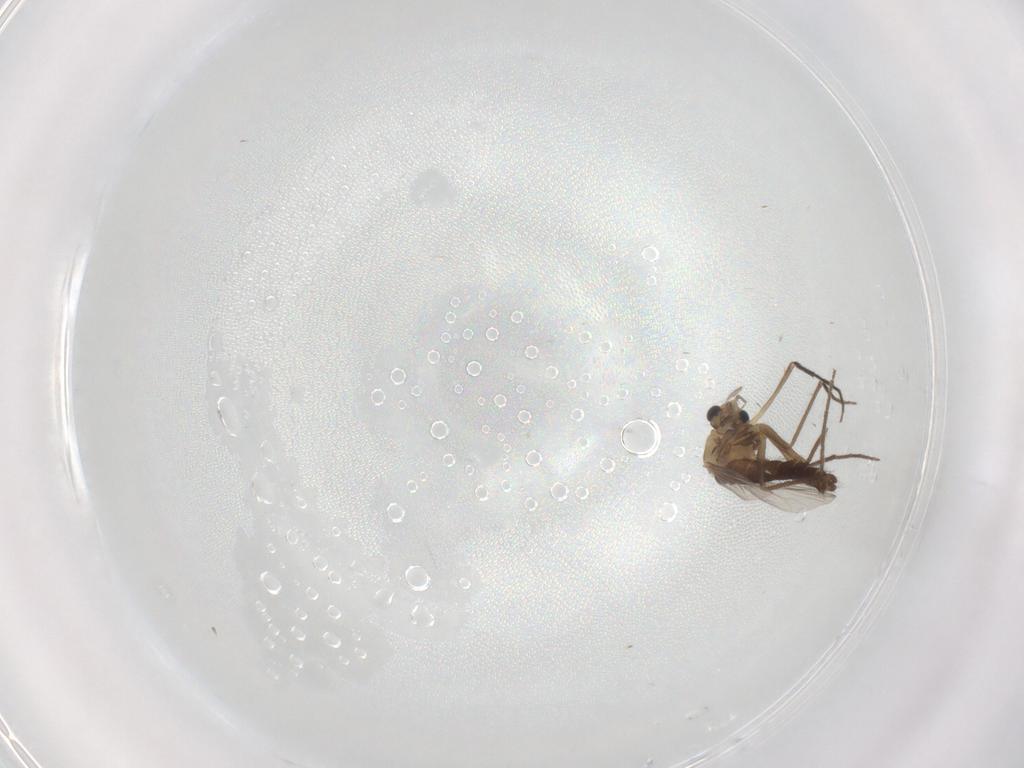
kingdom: Animalia
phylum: Arthropoda
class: Insecta
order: Diptera
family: Chironomidae
